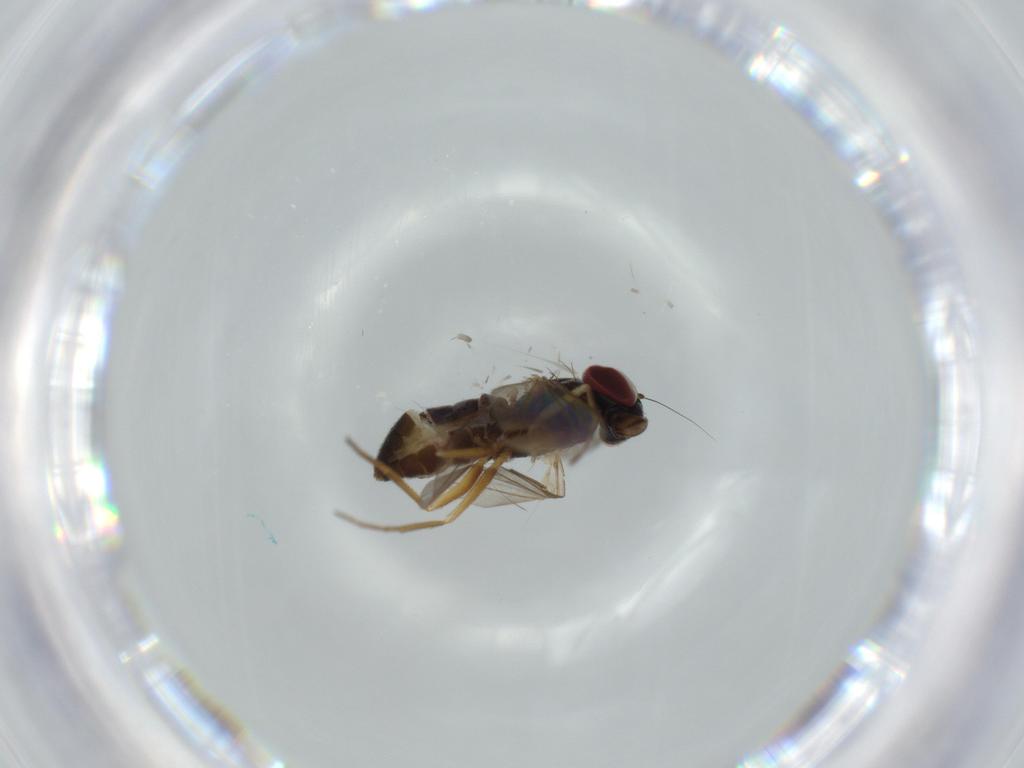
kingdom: Animalia
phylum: Arthropoda
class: Insecta
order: Diptera
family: Dolichopodidae
